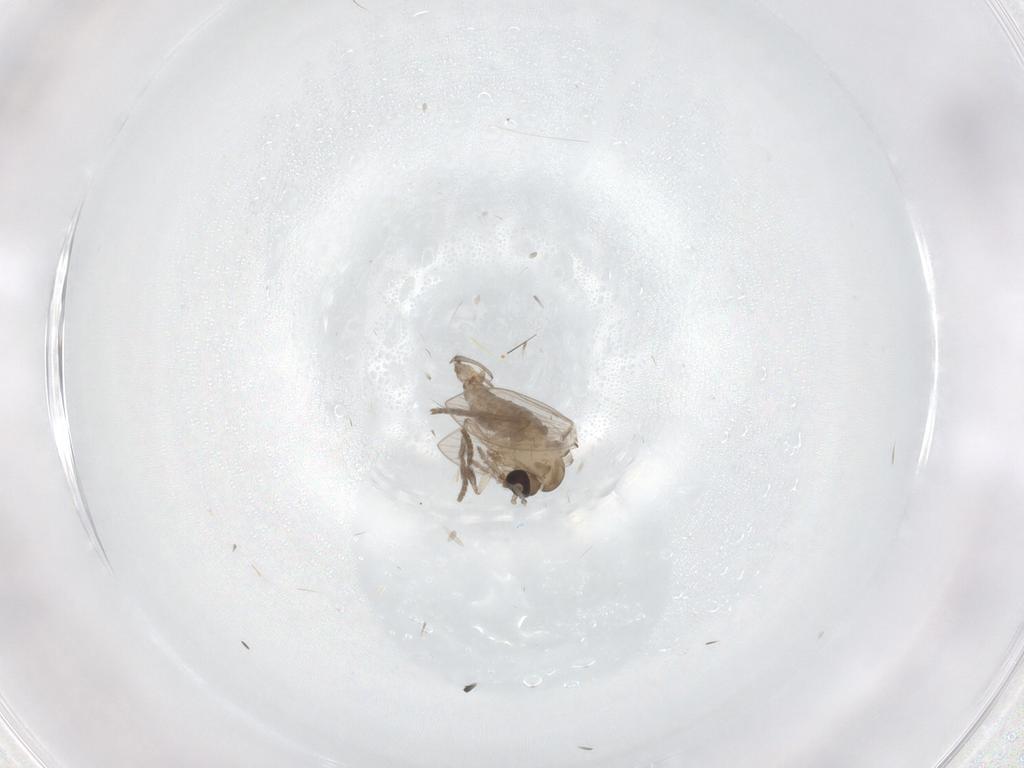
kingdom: Animalia
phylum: Arthropoda
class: Insecta
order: Diptera
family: Psychodidae
